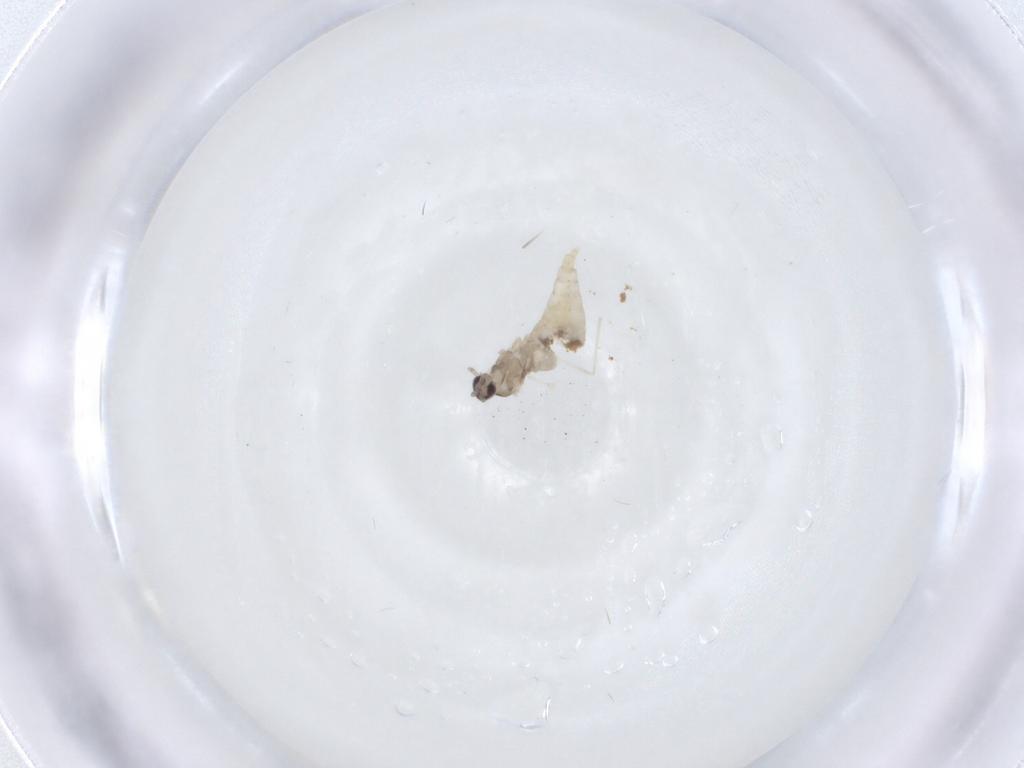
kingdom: Animalia
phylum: Arthropoda
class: Insecta
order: Diptera
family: Cecidomyiidae
